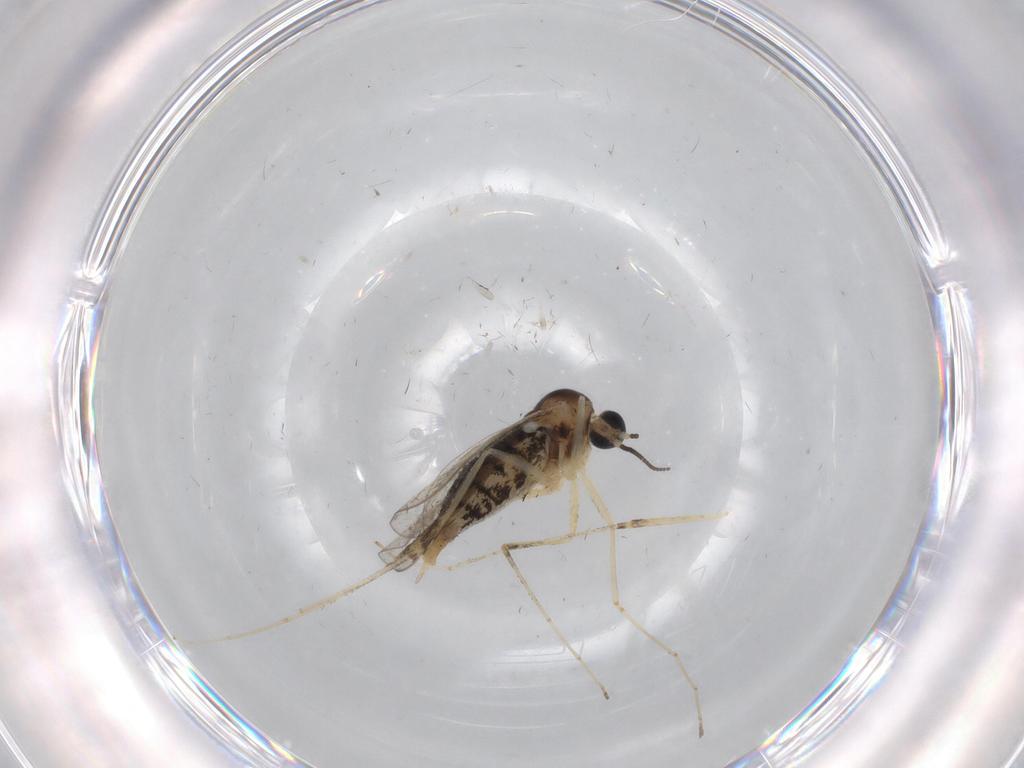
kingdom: Animalia
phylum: Arthropoda
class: Insecta
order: Diptera
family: Cecidomyiidae
